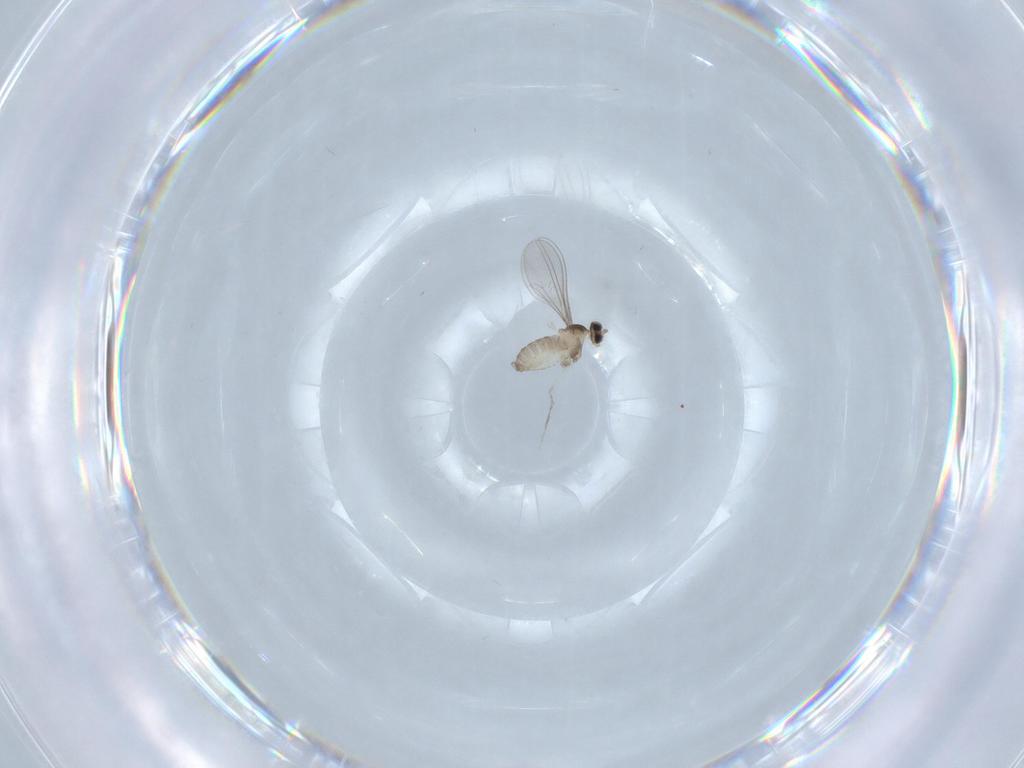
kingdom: Animalia
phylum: Arthropoda
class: Insecta
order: Diptera
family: Cecidomyiidae
